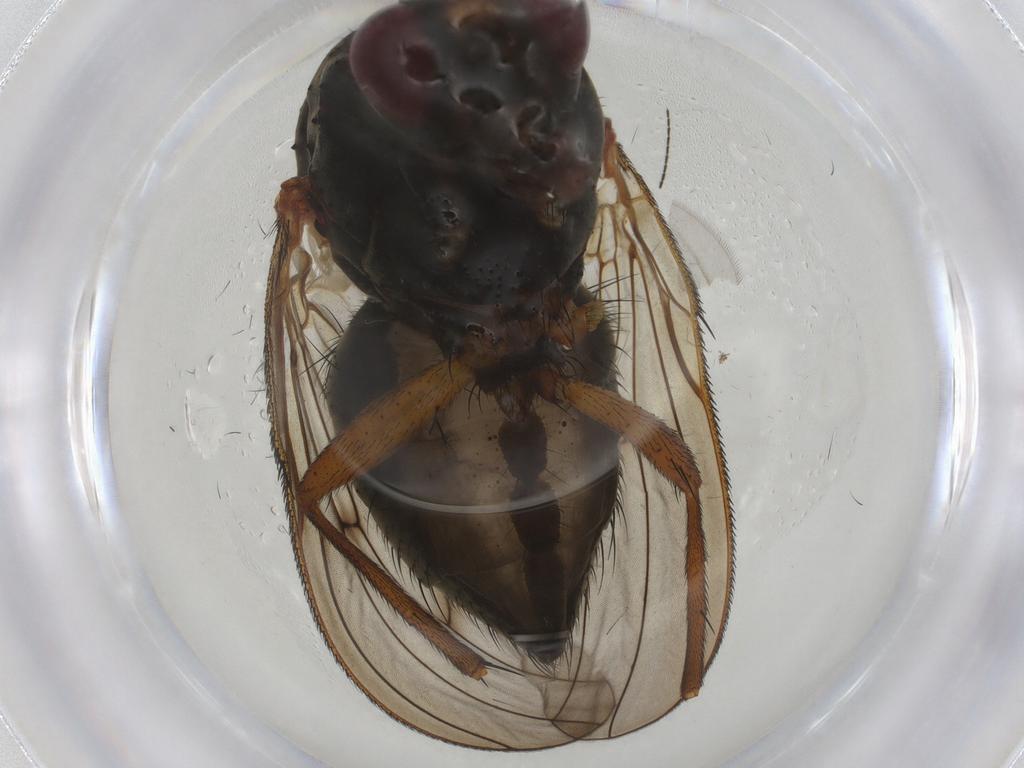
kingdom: Animalia
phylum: Arthropoda
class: Insecta
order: Diptera
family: Anthomyiidae
